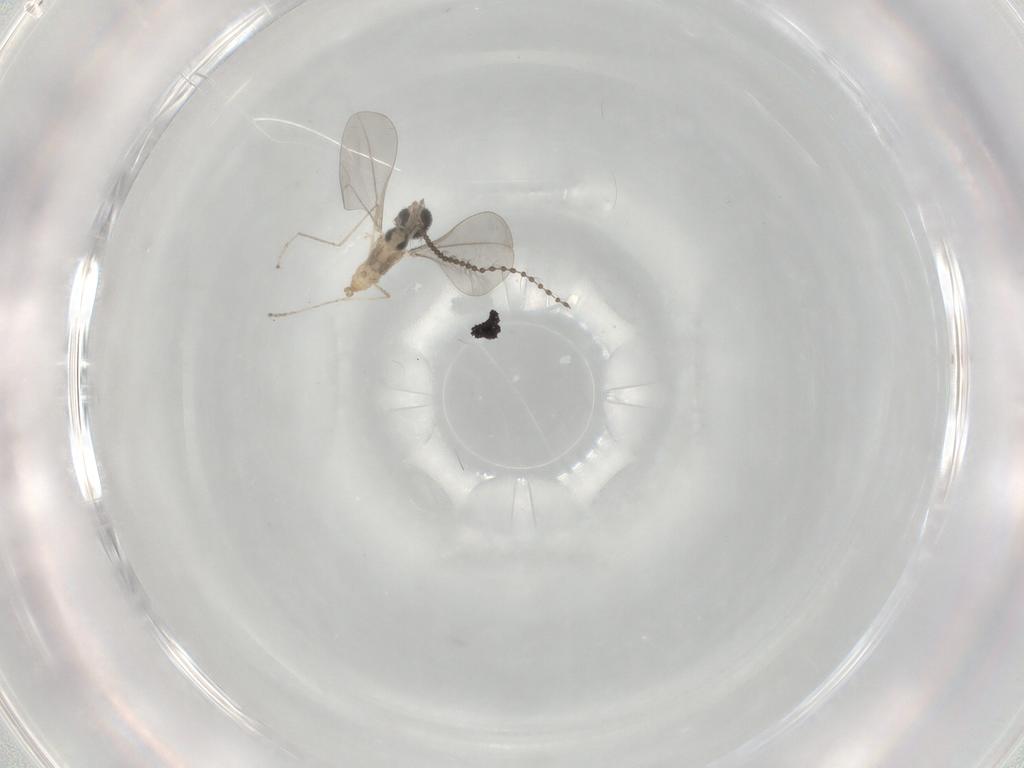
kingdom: Animalia
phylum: Arthropoda
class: Insecta
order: Diptera
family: Cecidomyiidae
